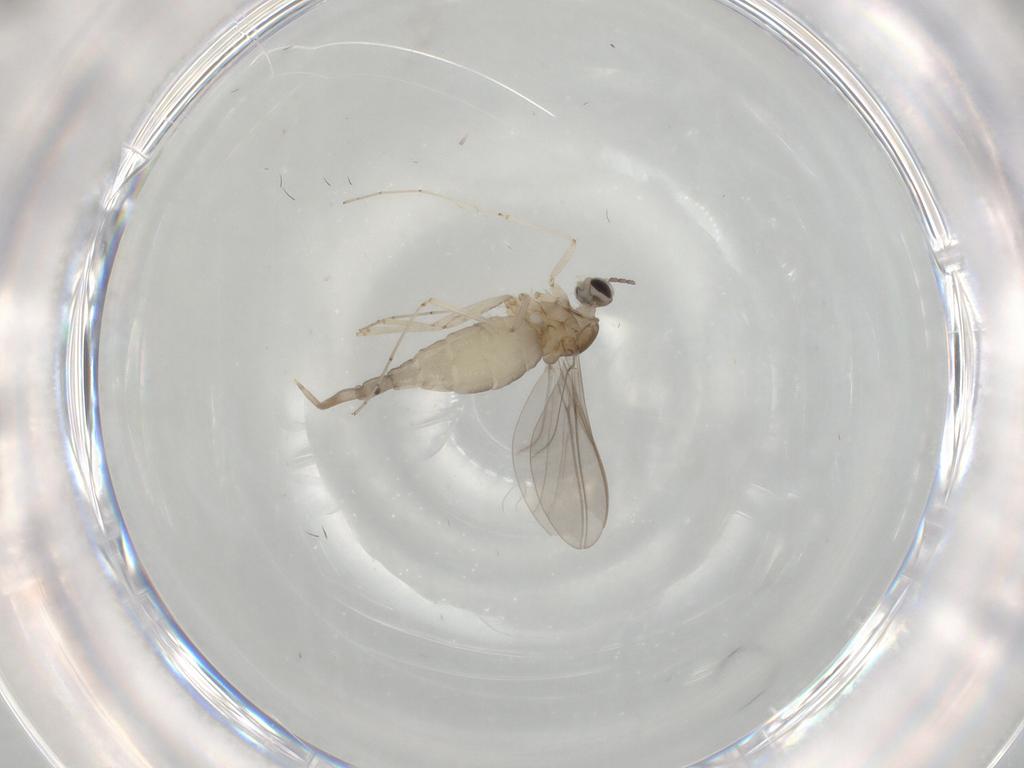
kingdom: Animalia
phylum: Arthropoda
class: Insecta
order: Diptera
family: Cecidomyiidae
